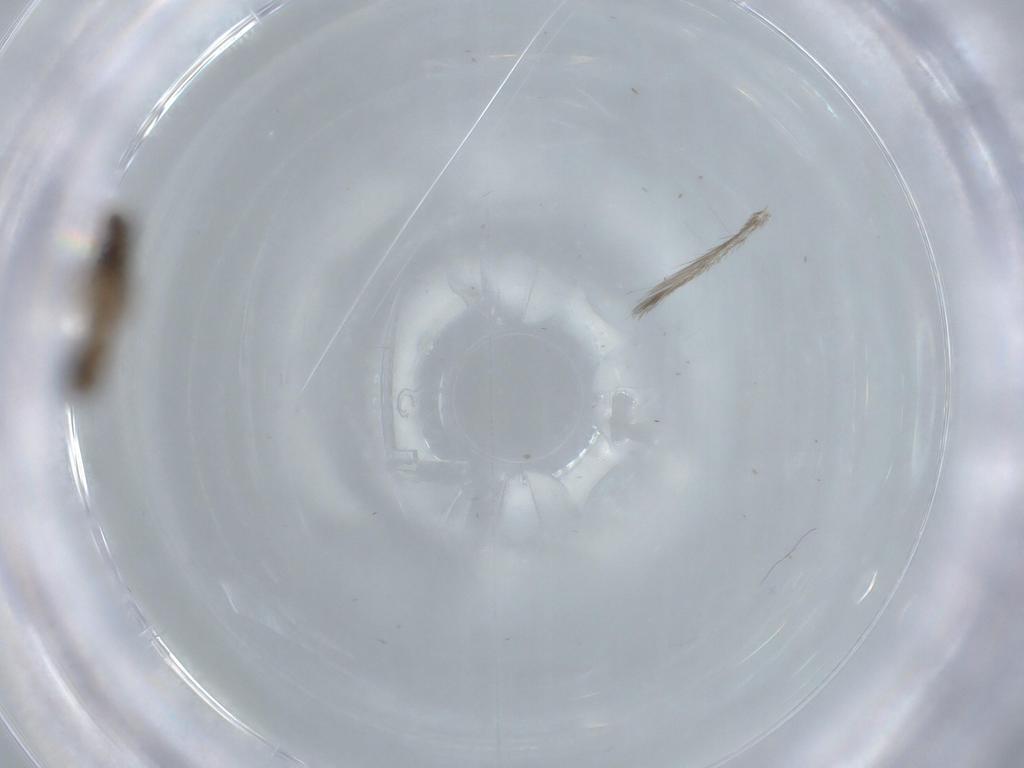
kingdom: Animalia
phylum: Arthropoda
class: Insecta
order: Lepidoptera
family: Nepticulidae
